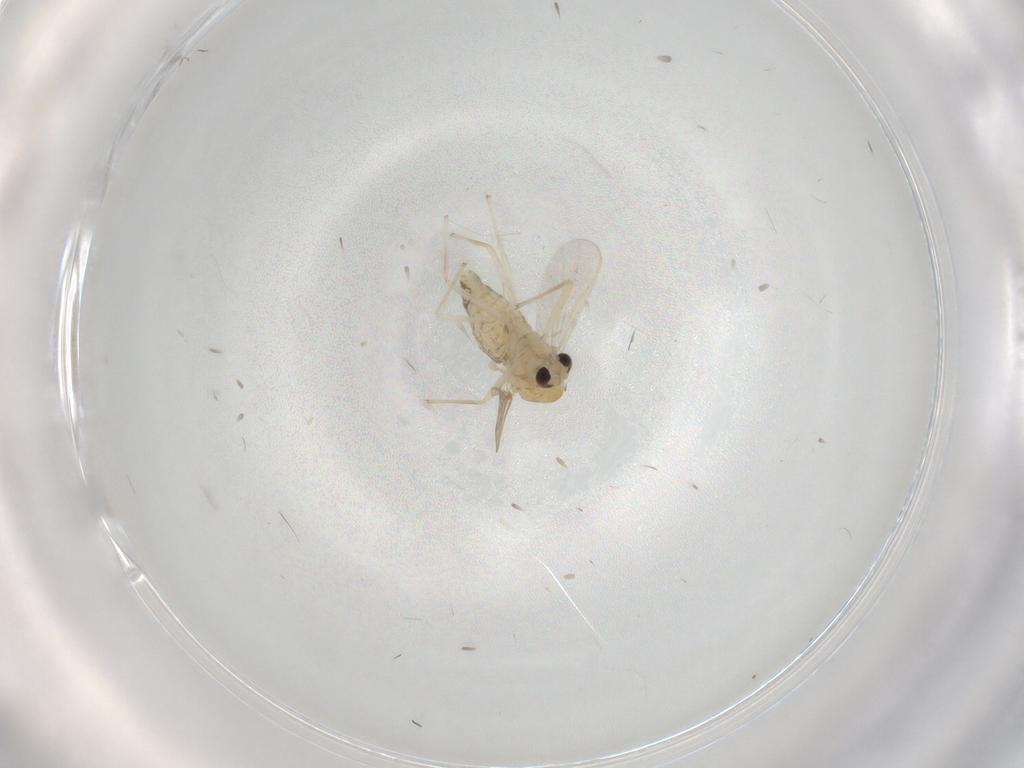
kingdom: Animalia
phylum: Arthropoda
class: Insecta
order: Diptera
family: Chironomidae
